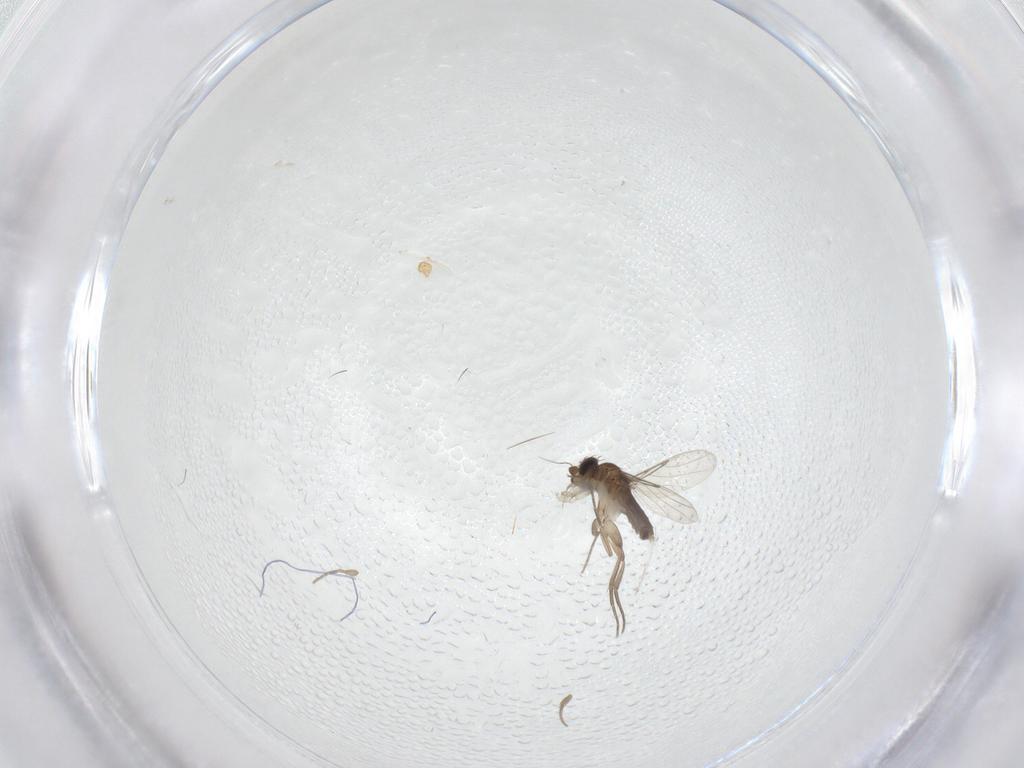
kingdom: Animalia
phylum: Arthropoda
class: Insecta
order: Diptera
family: Phoridae
